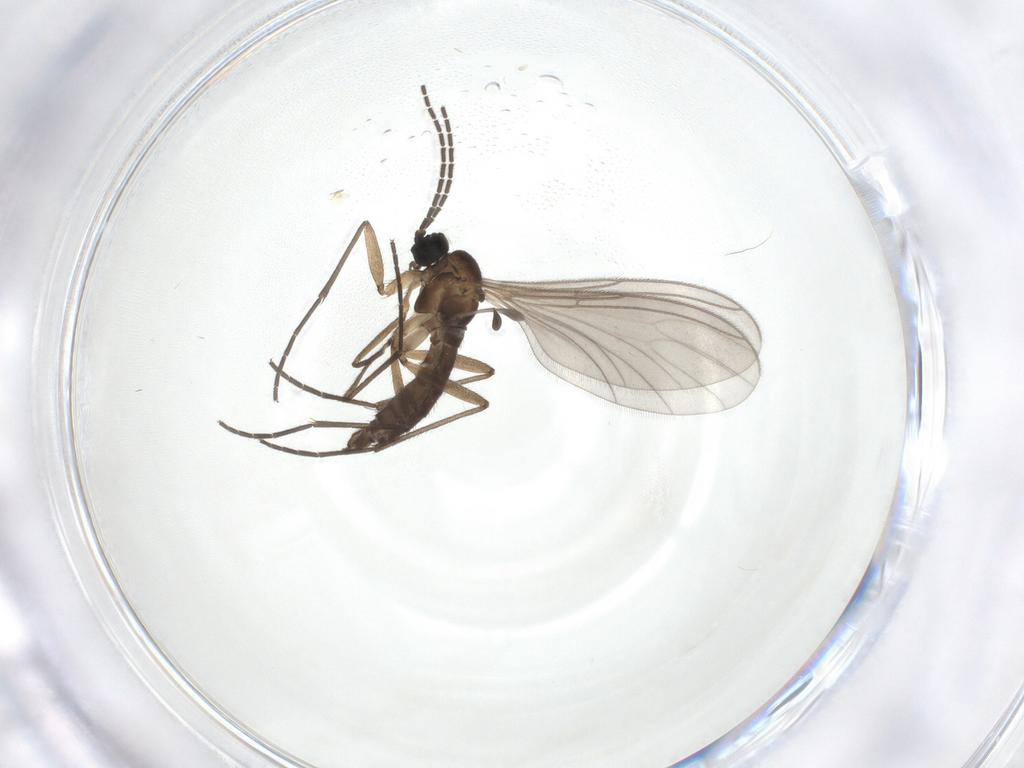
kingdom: Animalia
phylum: Arthropoda
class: Insecta
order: Diptera
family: Sciaridae
